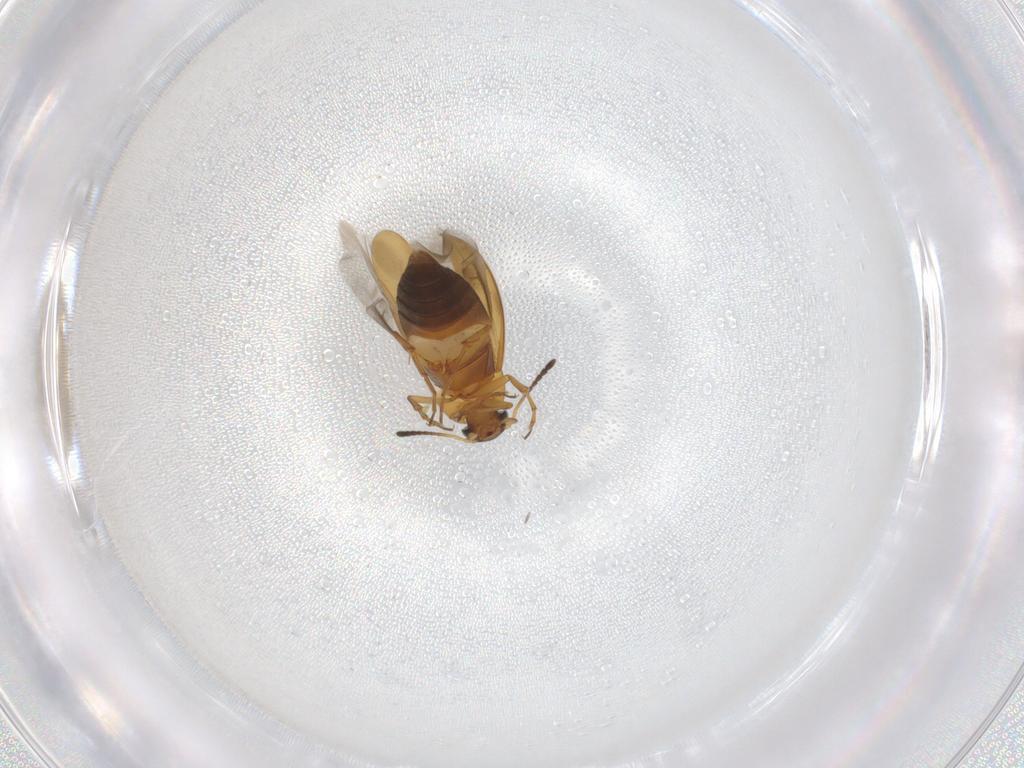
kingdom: Animalia
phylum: Arthropoda
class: Insecta
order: Coleoptera
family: Scraptiidae
